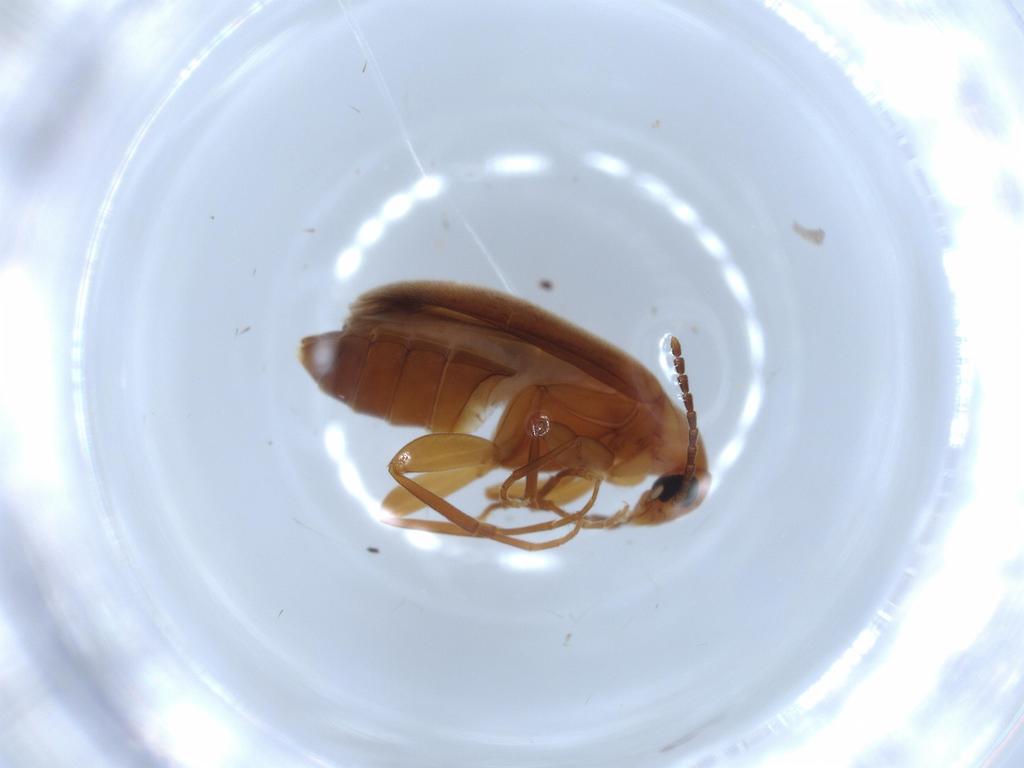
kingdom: Animalia
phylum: Arthropoda
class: Insecta
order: Coleoptera
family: Scraptiidae
